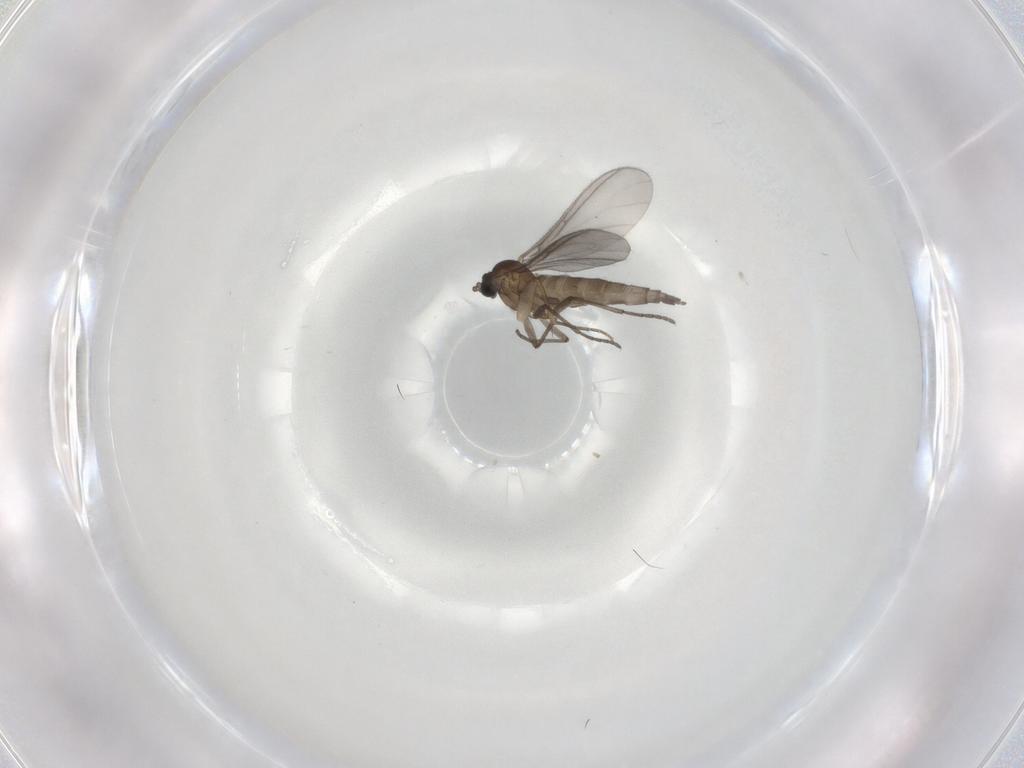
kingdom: Animalia
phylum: Arthropoda
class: Insecta
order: Diptera
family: Sciaridae
